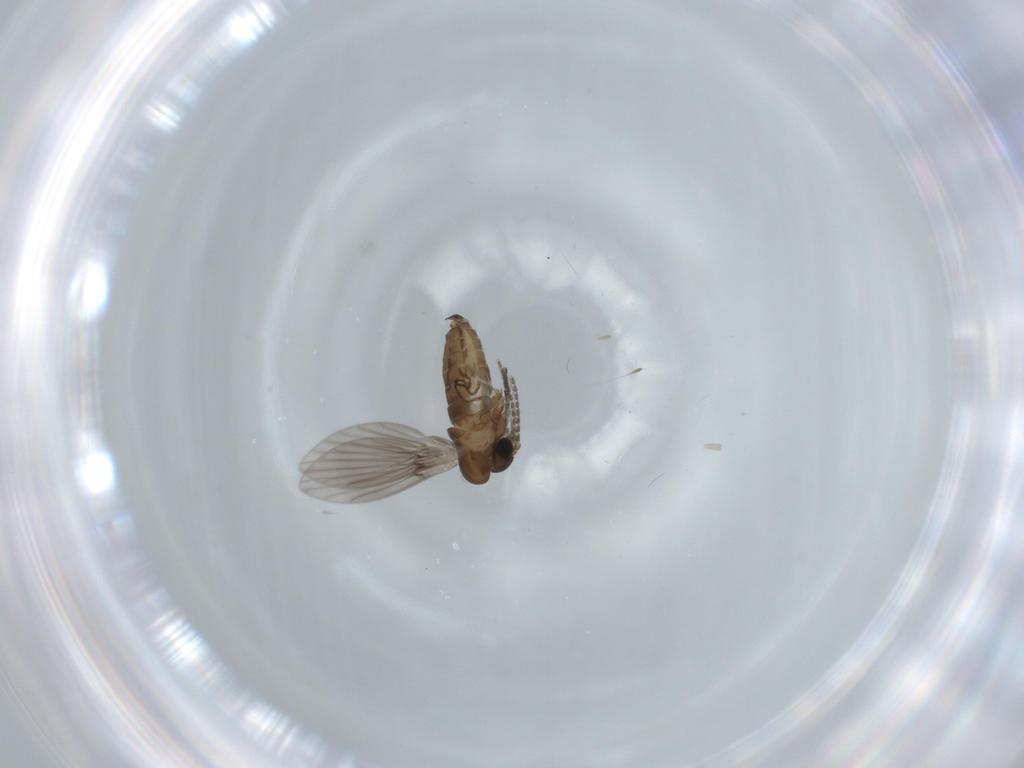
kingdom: Animalia
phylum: Arthropoda
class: Insecta
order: Diptera
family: Psychodidae
